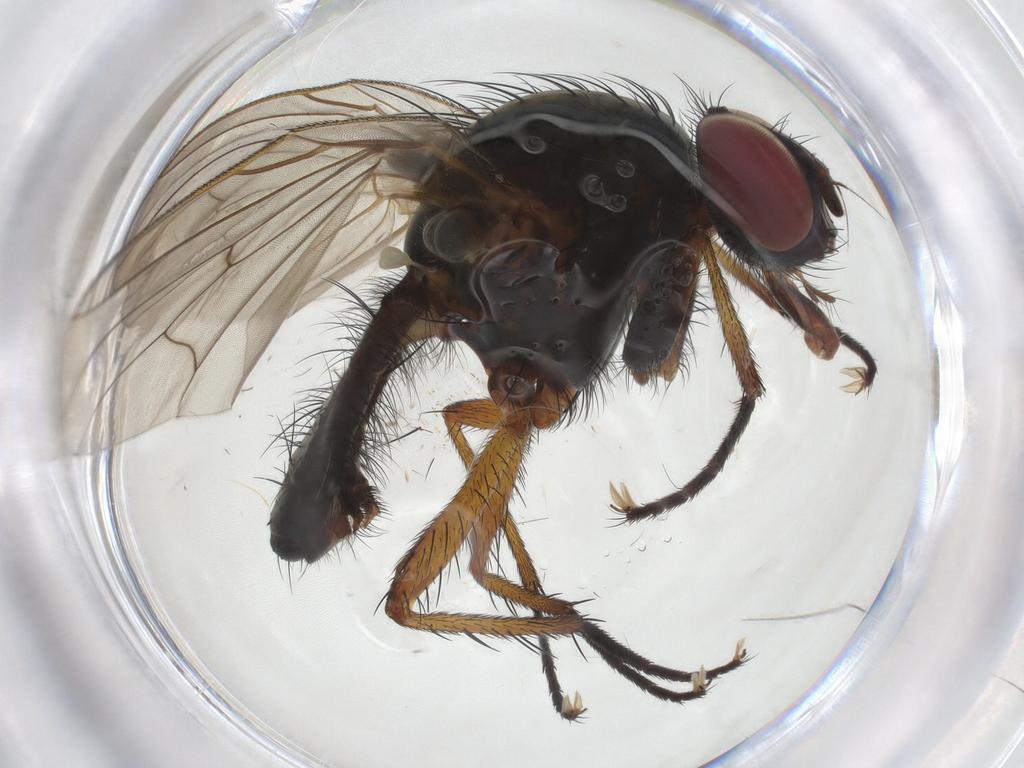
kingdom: Animalia
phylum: Arthropoda
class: Insecta
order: Diptera
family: Anthomyiidae
